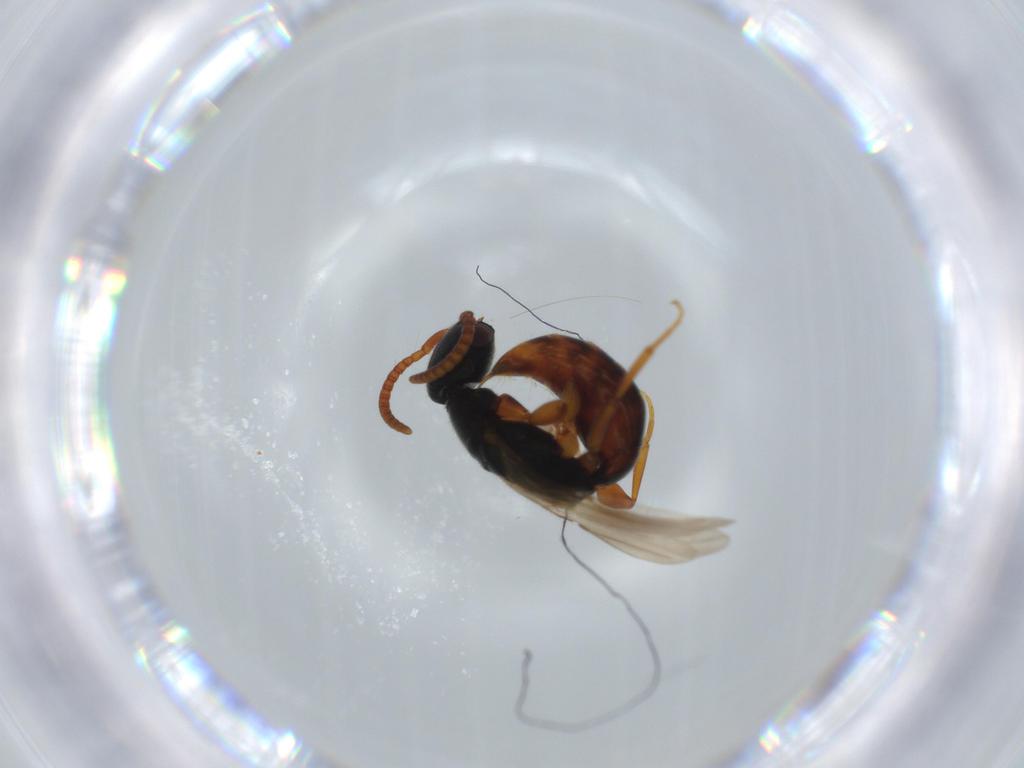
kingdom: Animalia
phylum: Arthropoda
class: Insecta
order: Hymenoptera
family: Bethylidae
